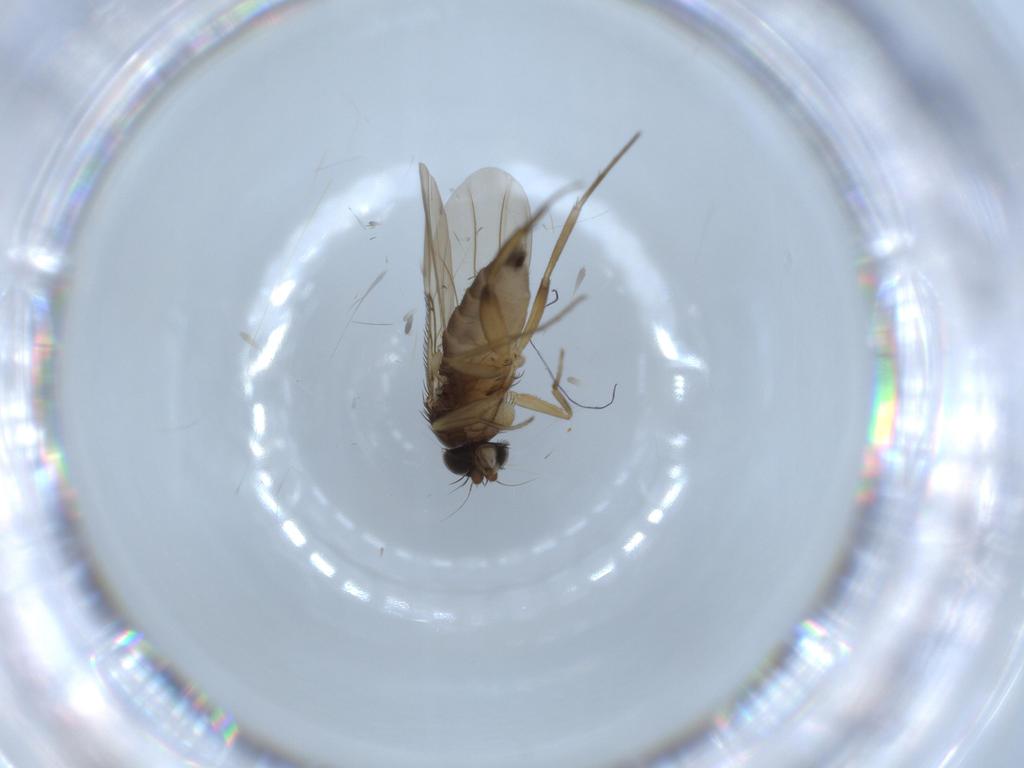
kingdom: Animalia
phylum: Arthropoda
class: Insecta
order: Diptera
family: Phoridae
